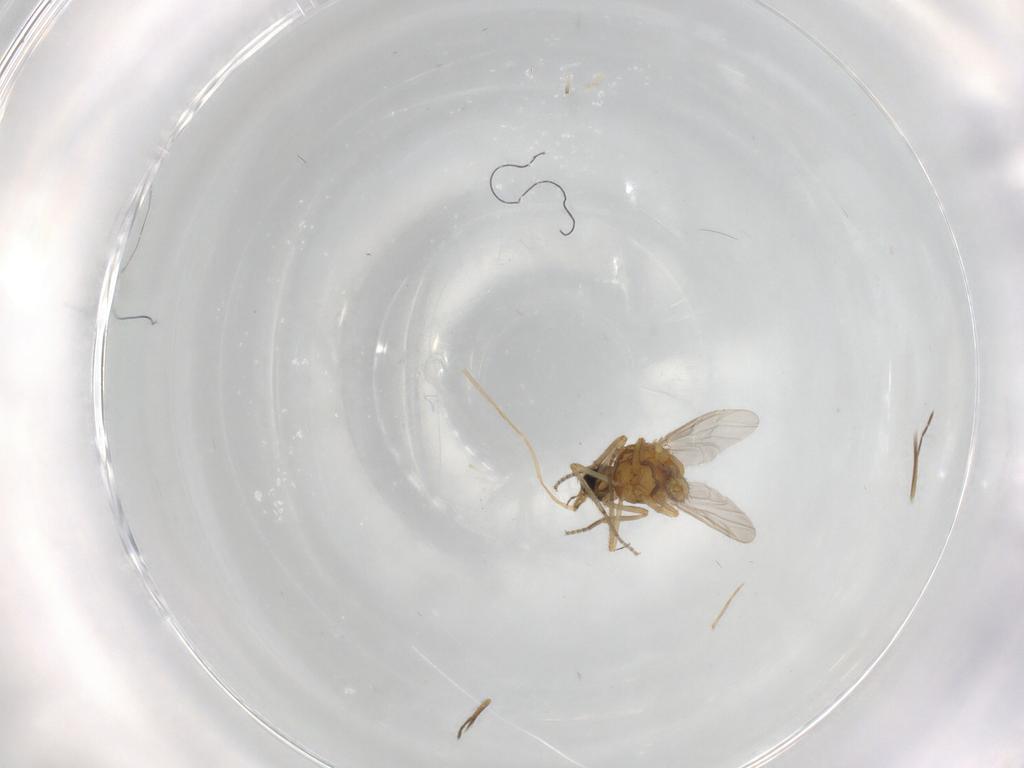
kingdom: Animalia
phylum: Arthropoda
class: Insecta
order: Diptera
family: Ceratopogonidae
